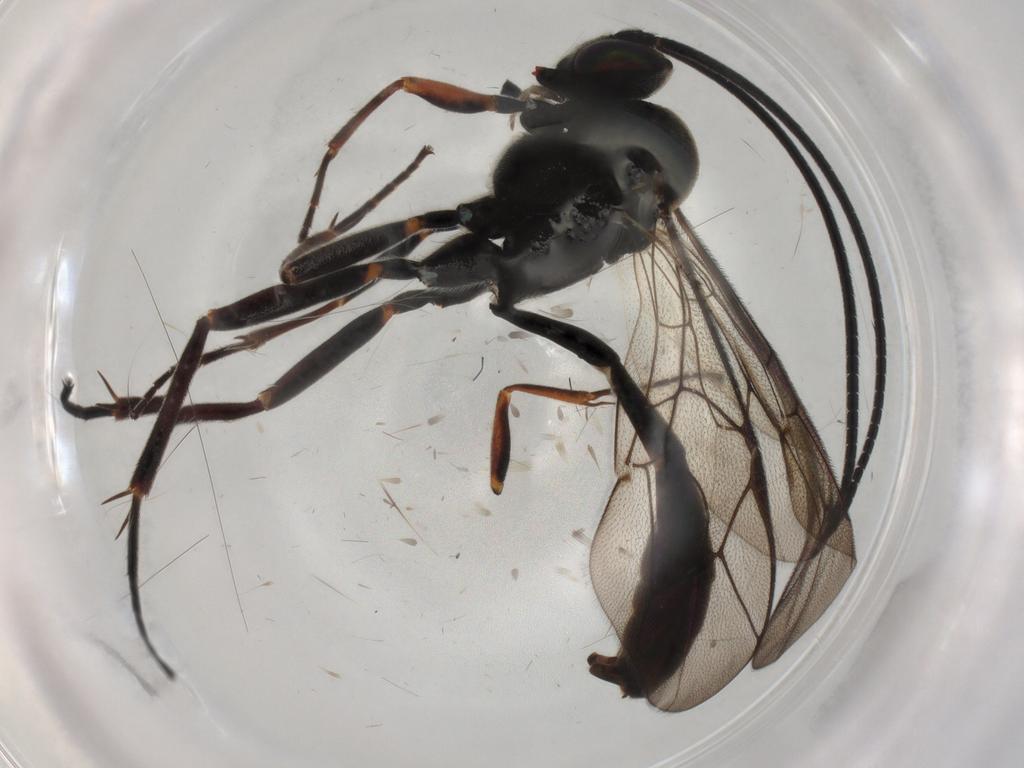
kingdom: Animalia
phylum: Arthropoda
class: Insecta
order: Hymenoptera
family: Ichneumonidae
